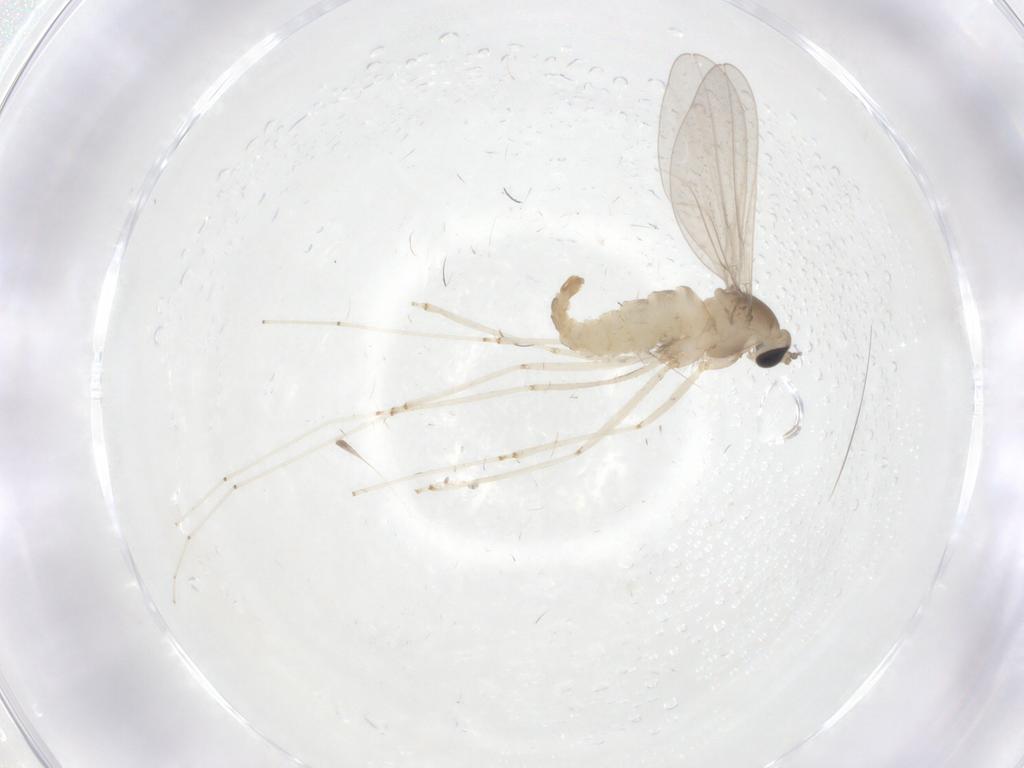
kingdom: Animalia
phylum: Arthropoda
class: Insecta
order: Diptera
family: Cecidomyiidae
